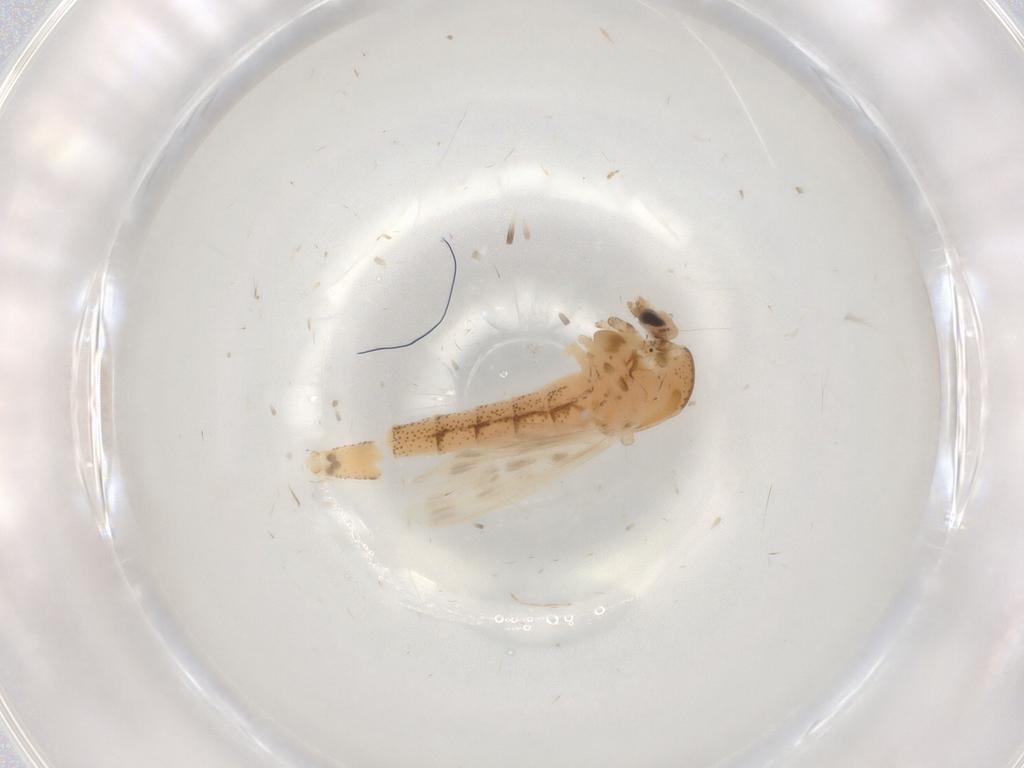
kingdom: Animalia
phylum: Arthropoda
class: Insecta
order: Diptera
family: Chaoboridae
